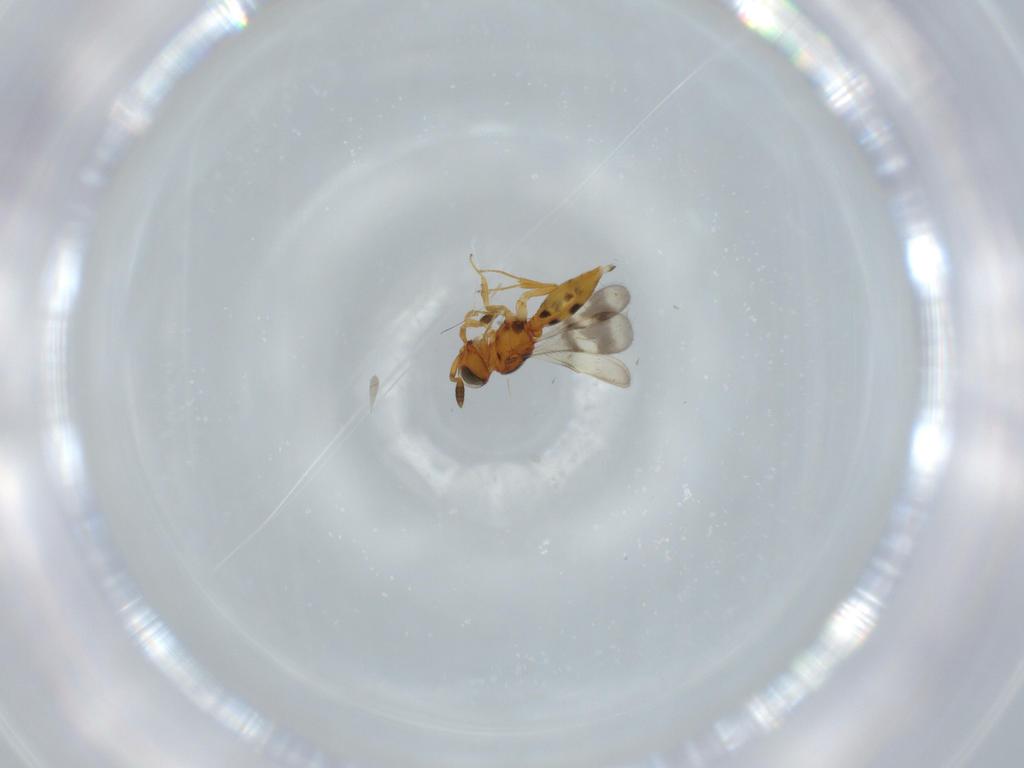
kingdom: Animalia
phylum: Arthropoda
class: Insecta
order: Hymenoptera
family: Scelionidae
